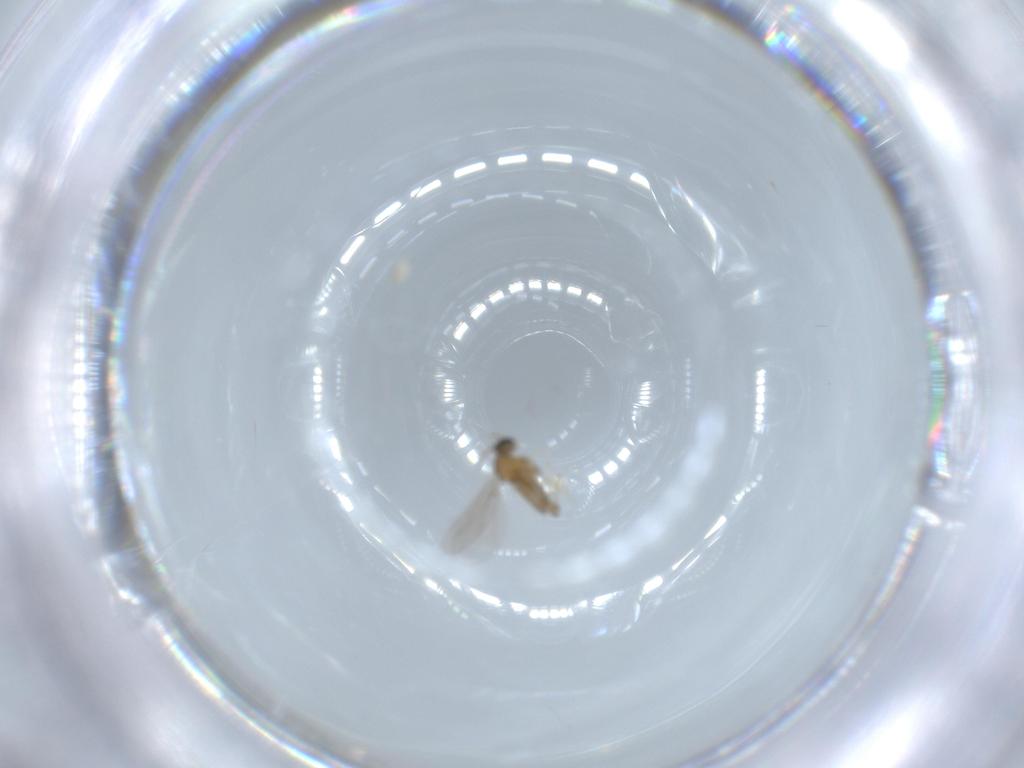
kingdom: Animalia
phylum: Arthropoda
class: Insecta
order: Diptera
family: Cecidomyiidae
